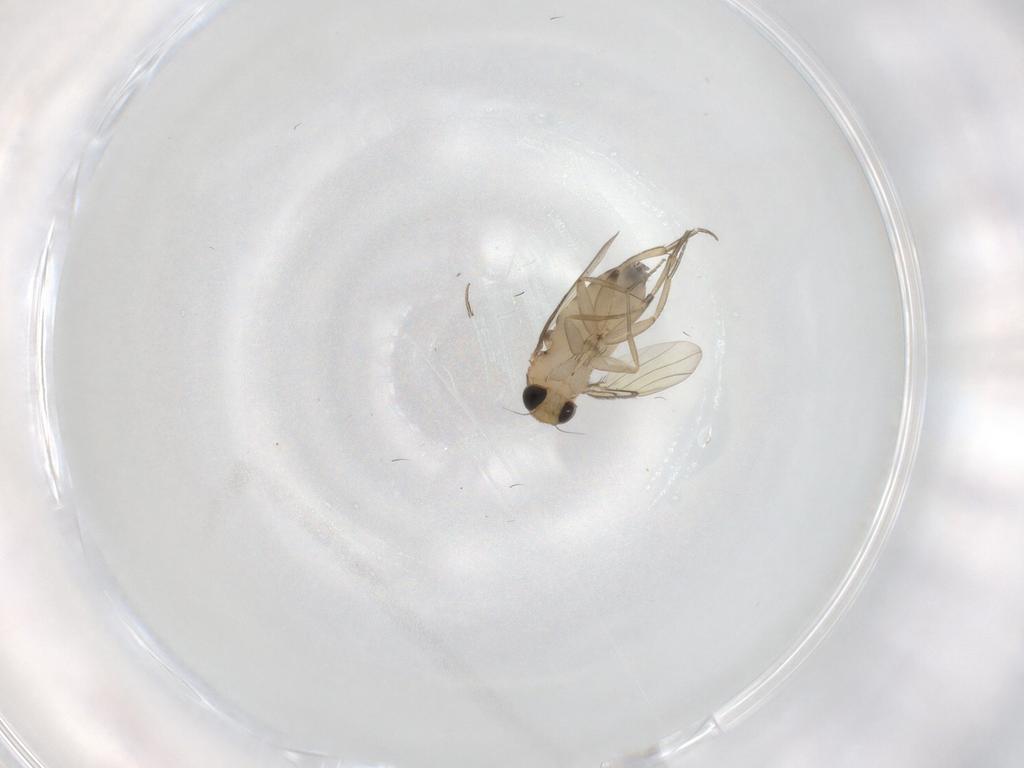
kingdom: Animalia
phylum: Arthropoda
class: Insecta
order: Diptera
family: Phoridae
